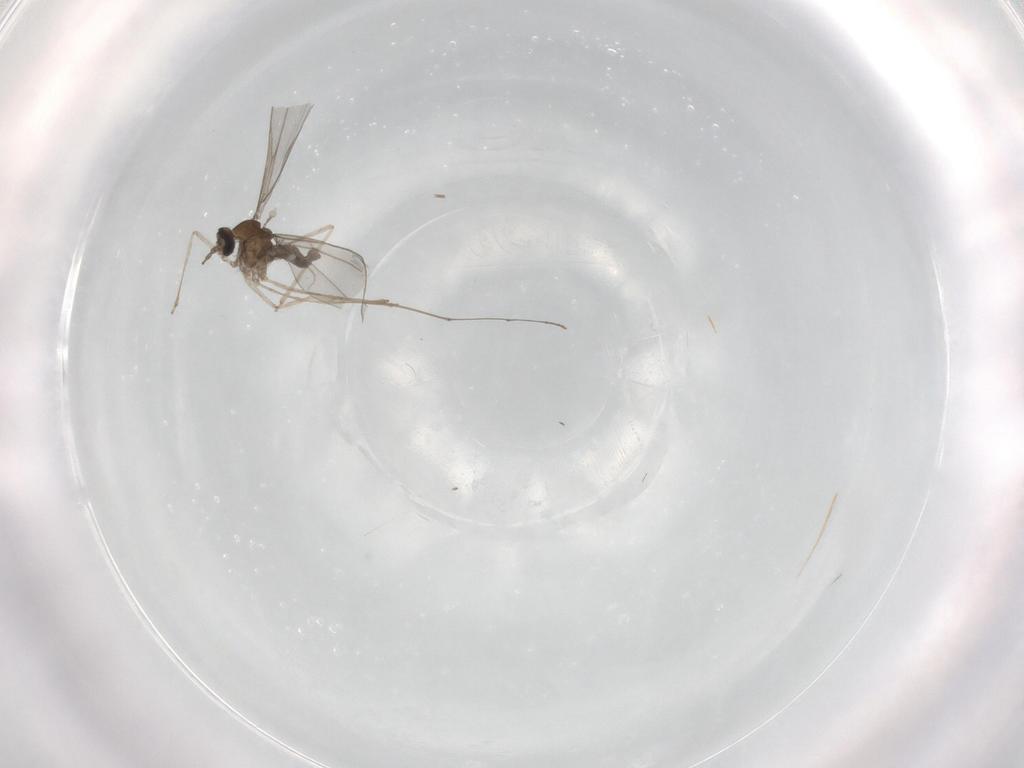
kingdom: Animalia
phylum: Arthropoda
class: Insecta
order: Diptera
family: Cecidomyiidae
